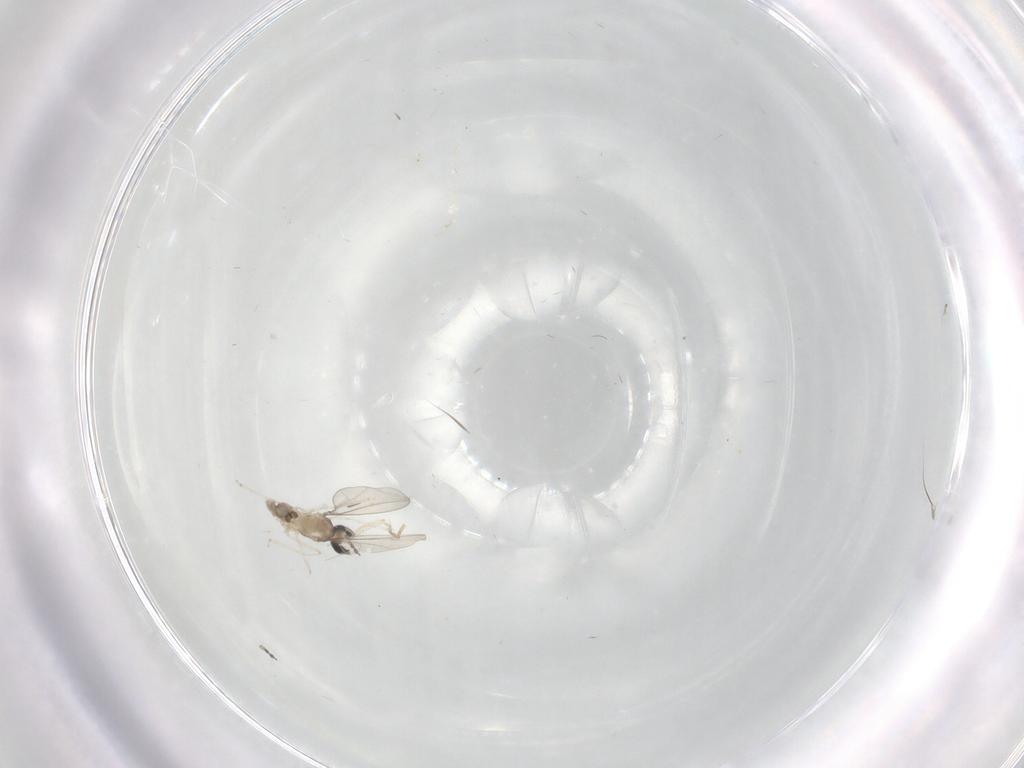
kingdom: Animalia
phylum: Arthropoda
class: Insecta
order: Diptera
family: Phoridae
